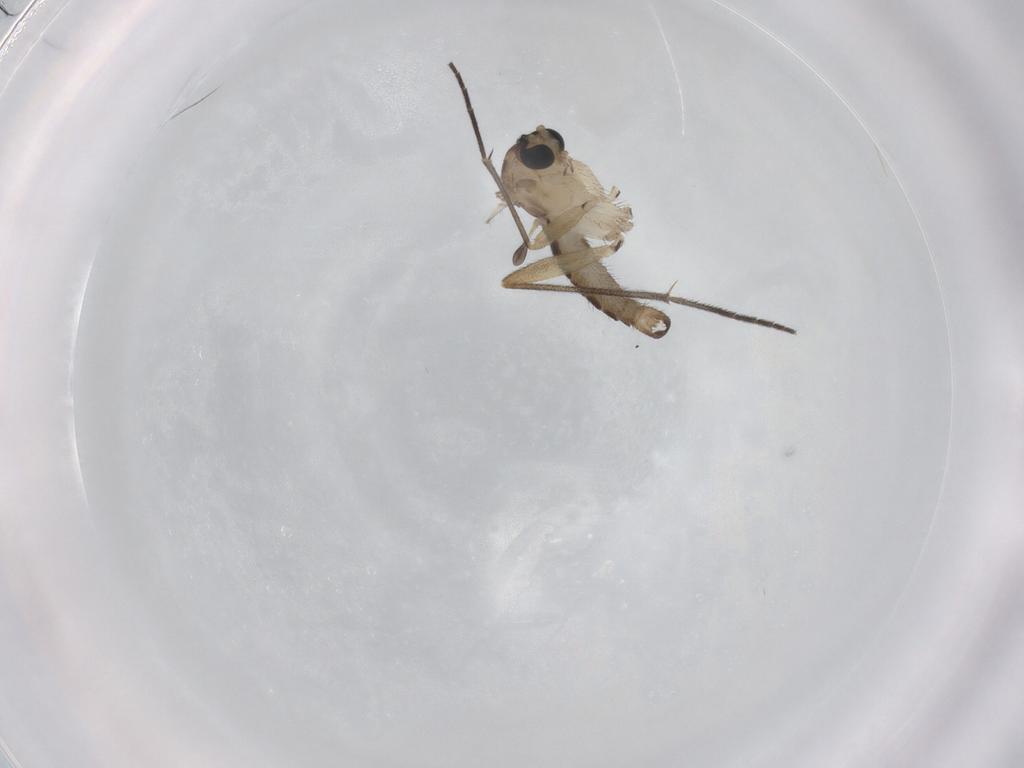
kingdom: Animalia
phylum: Arthropoda
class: Insecta
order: Diptera
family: Sciaridae
